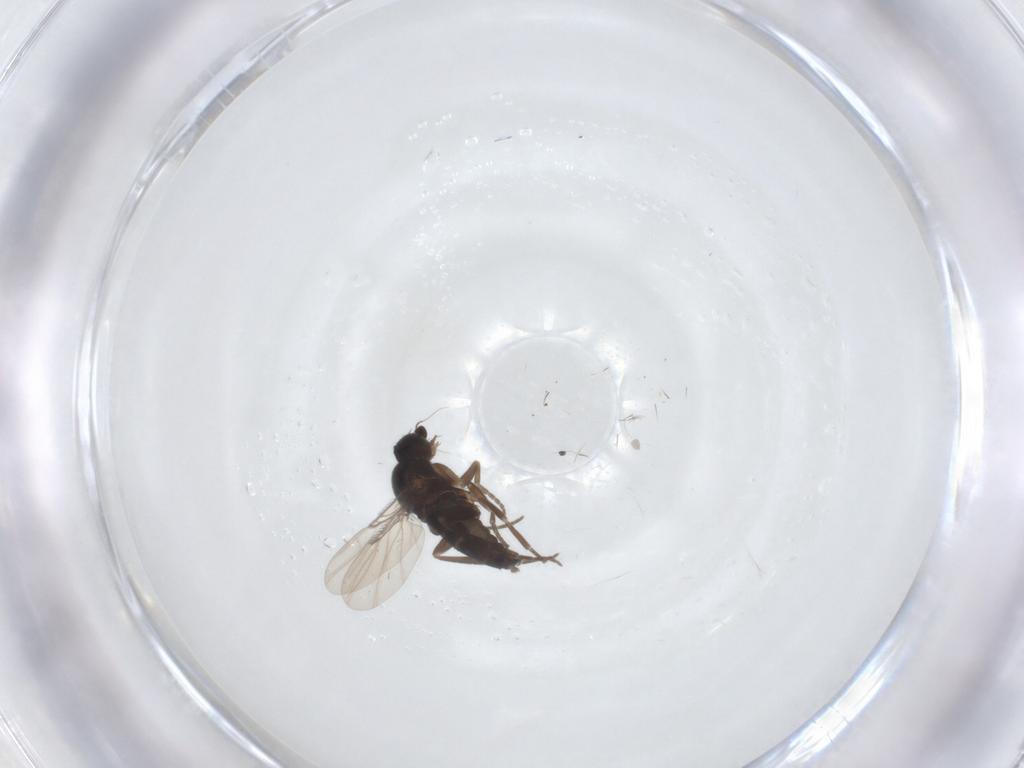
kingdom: Animalia
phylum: Arthropoda
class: Insecta
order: Diptera
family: Phoridae
